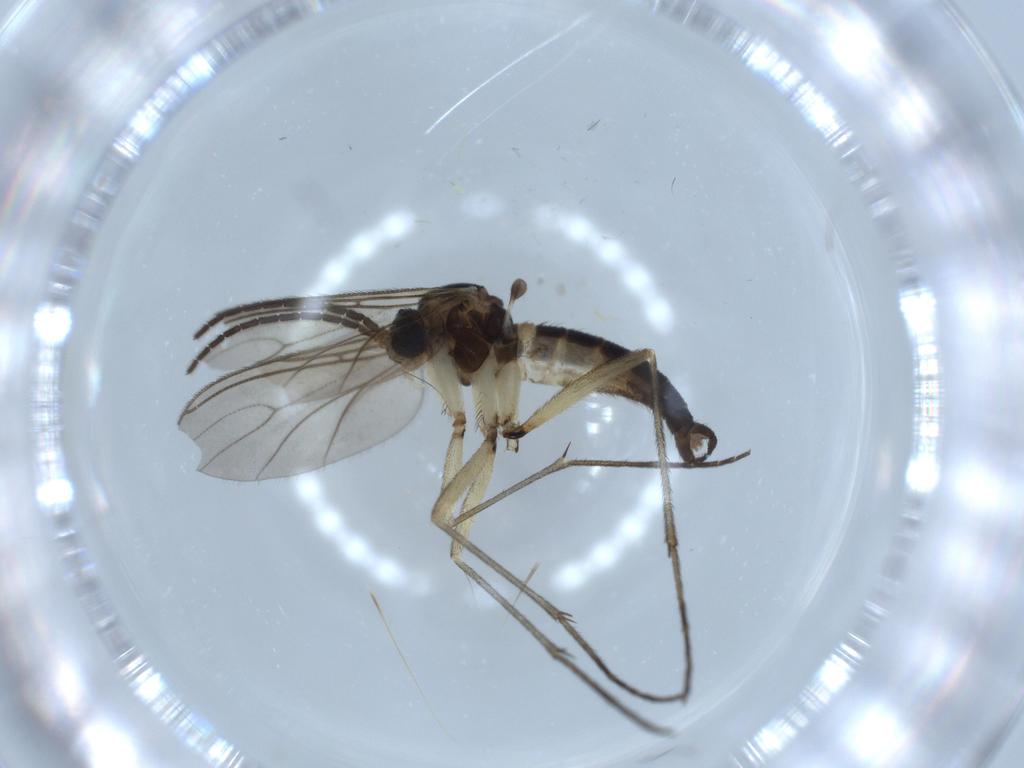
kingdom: Animalia
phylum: Arthropoda
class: Insecta
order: Diptera
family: Sciaridae
